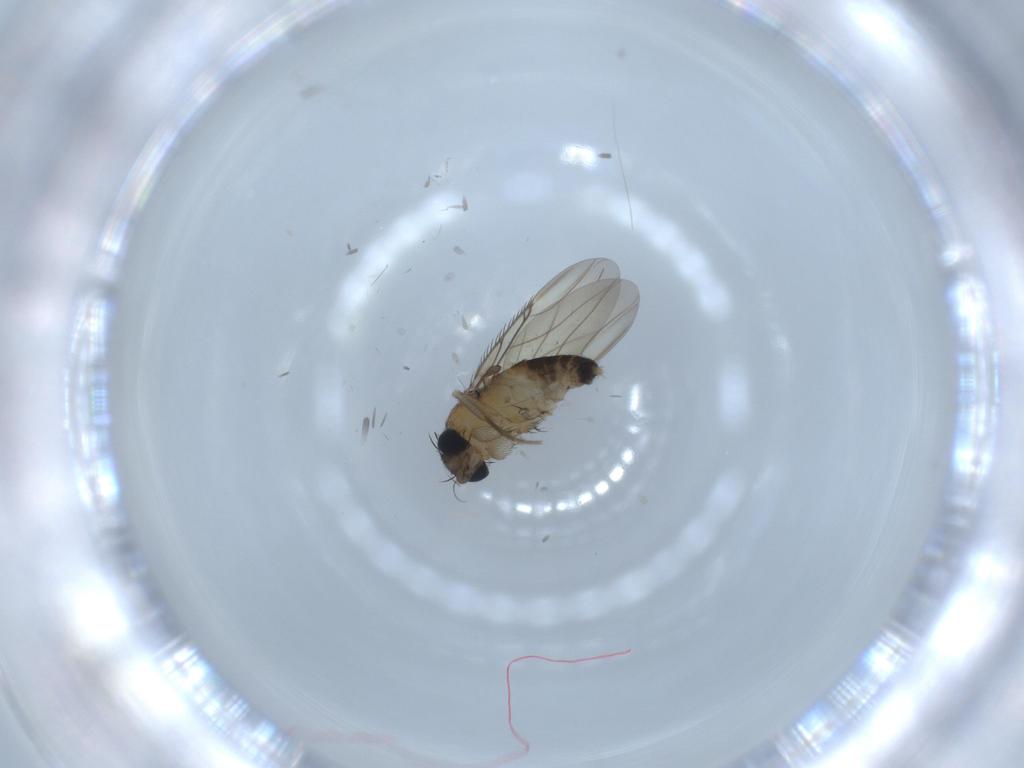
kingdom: Animalia
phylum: Arthropoda
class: Insecta
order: Diptera
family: Phoridae
